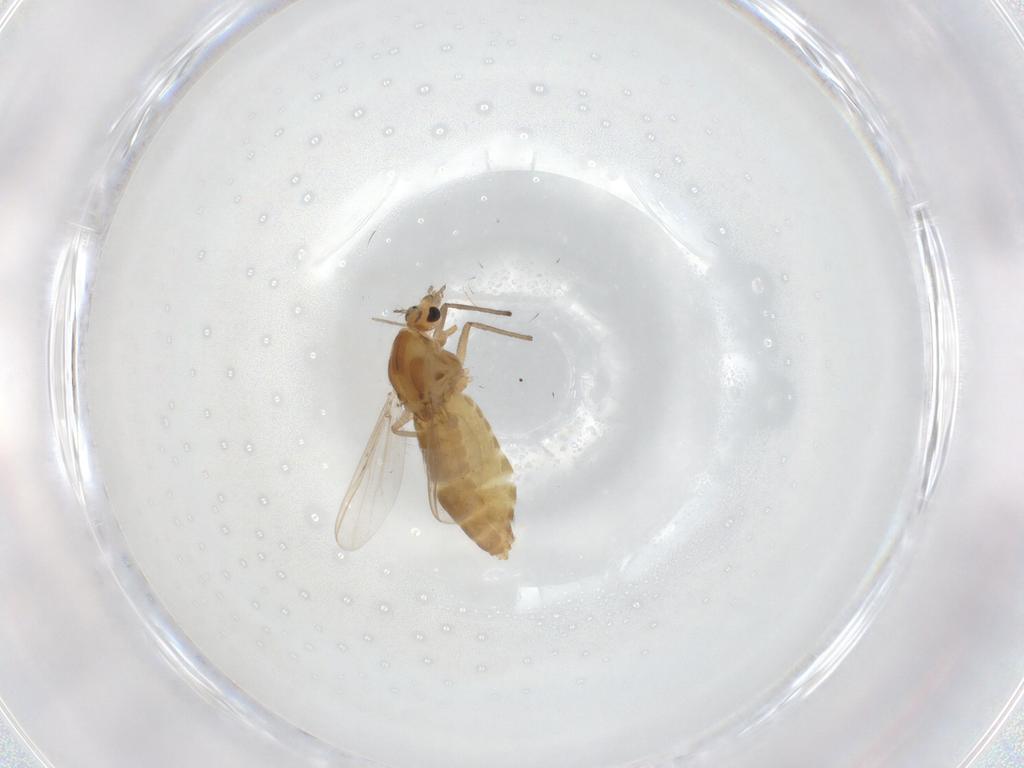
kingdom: Animalia
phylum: Arthropoda
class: Insecta
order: Diptera
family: Chironomidae
